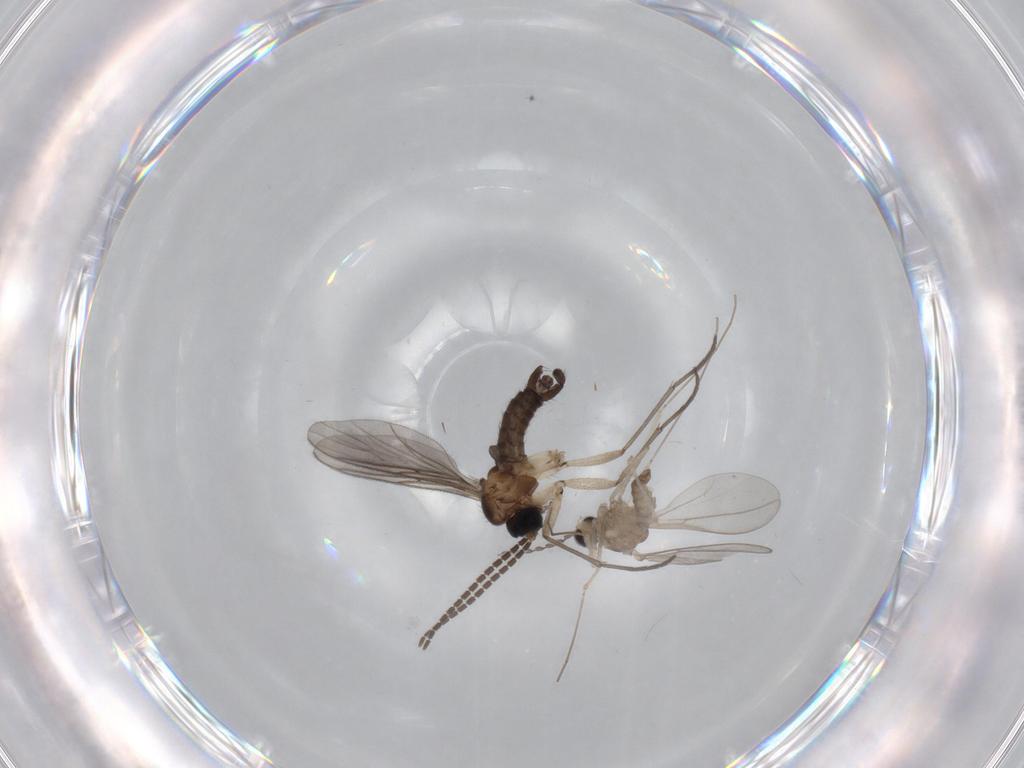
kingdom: Animalia
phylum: Arthropoda
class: Insecta
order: Diptera
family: Sciaridae
